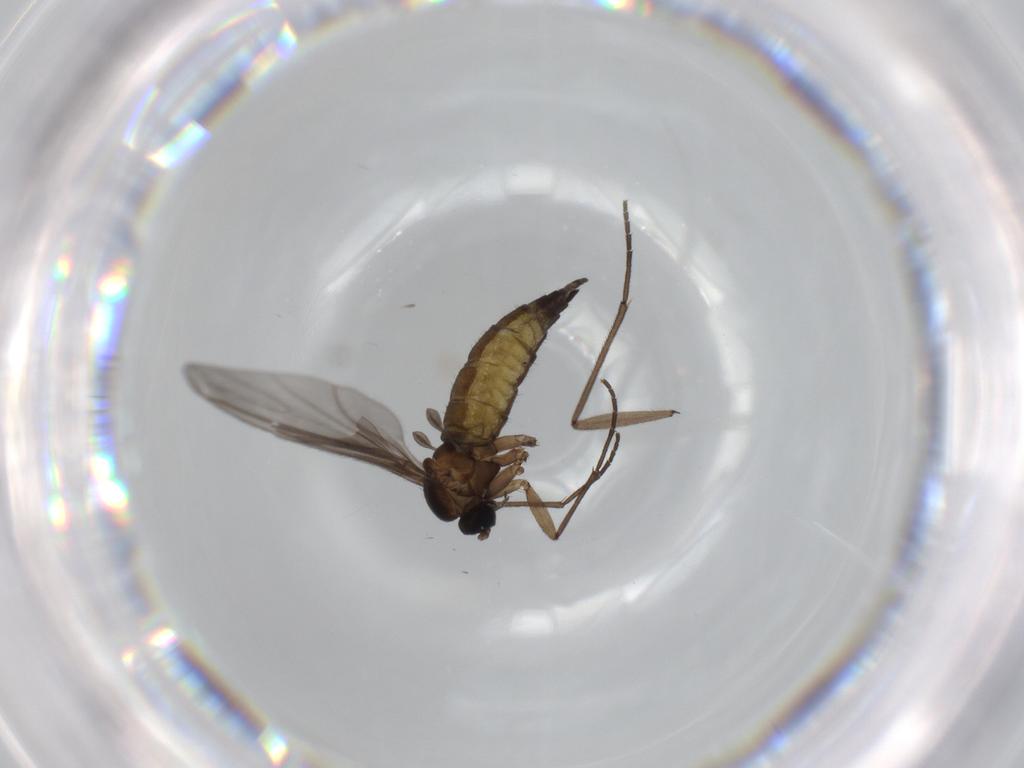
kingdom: Animalia
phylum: Arthropoda
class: Insecta
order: Diptera
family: Sciaridae
